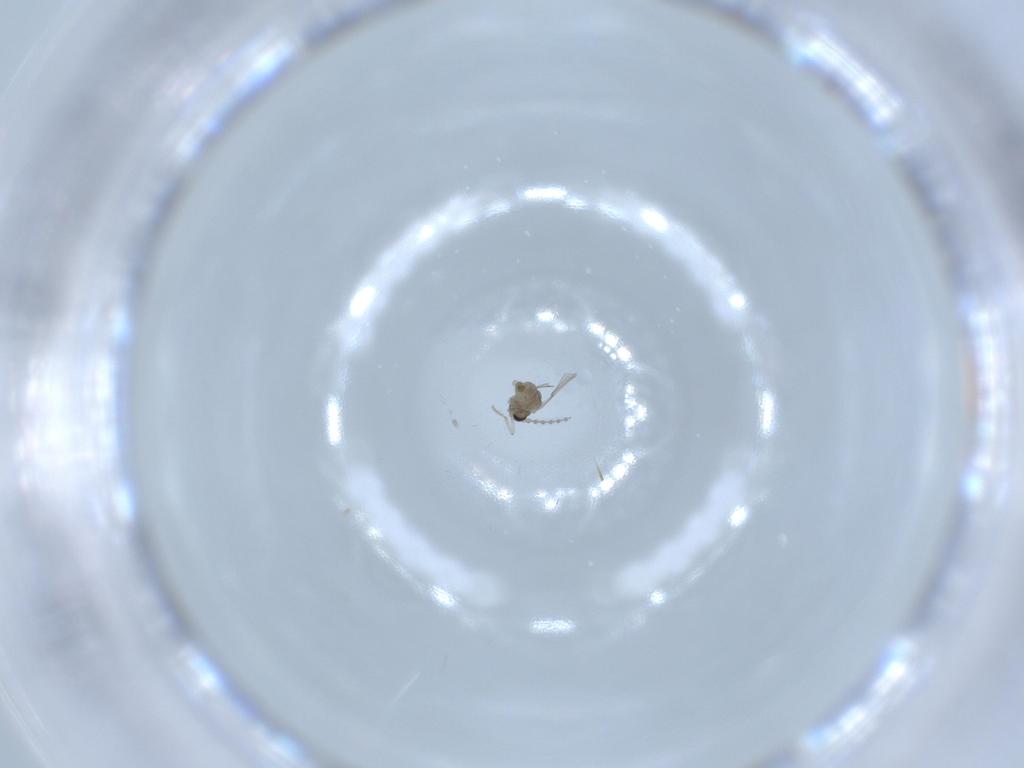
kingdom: Animalia
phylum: Arthropoda
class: Insecta
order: Diptera
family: Cecidomyiidae
